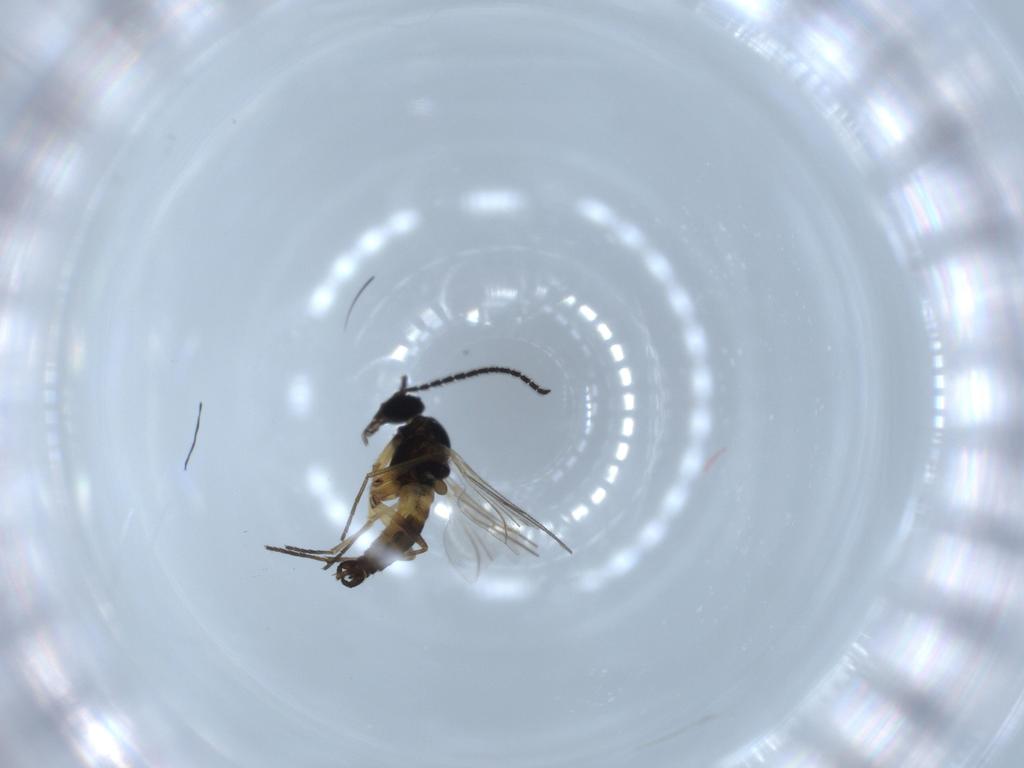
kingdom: Animalia
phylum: Arthropoda
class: Insecta
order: Diptera
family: Sciaridae
